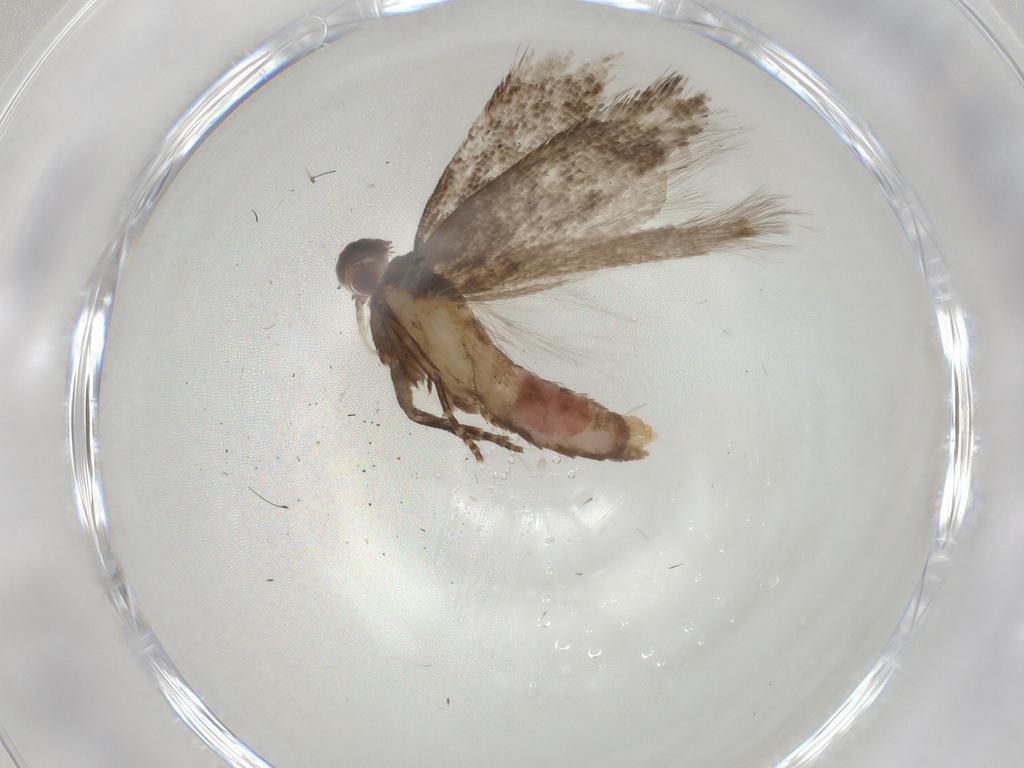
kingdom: Animalia
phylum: Arthropoda
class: Insecta
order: Lepidoptera
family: Gelechiidae
